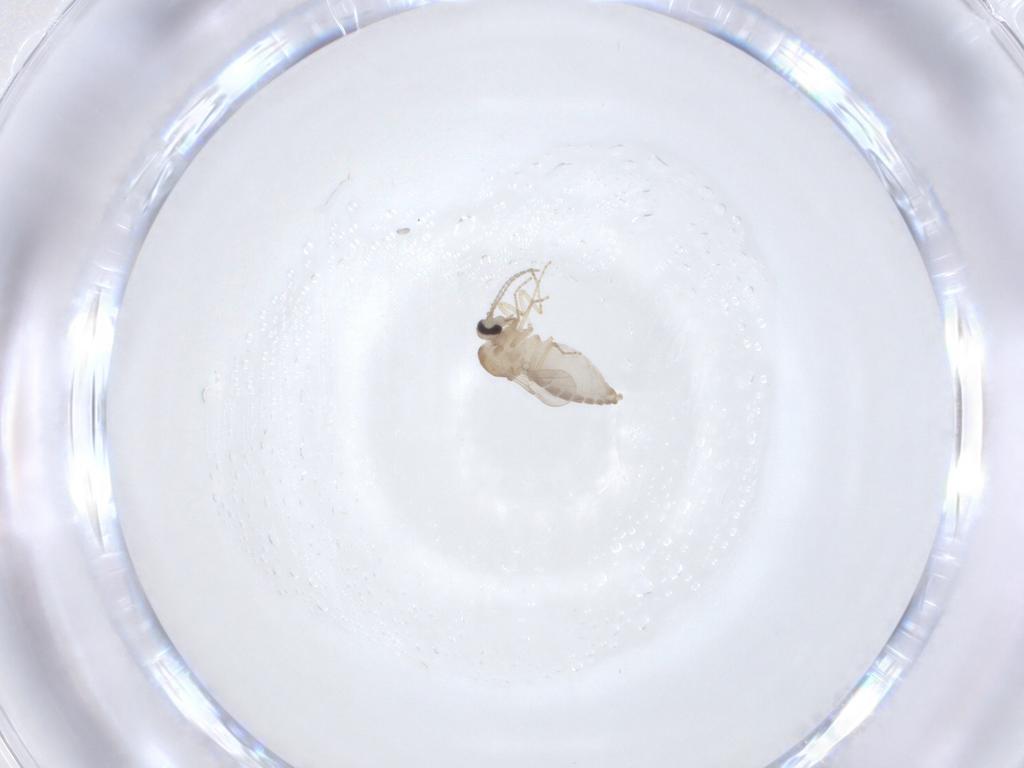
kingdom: Animalia
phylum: Arthropoda
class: Insecta
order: Diptera
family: Ceratopogonidae
